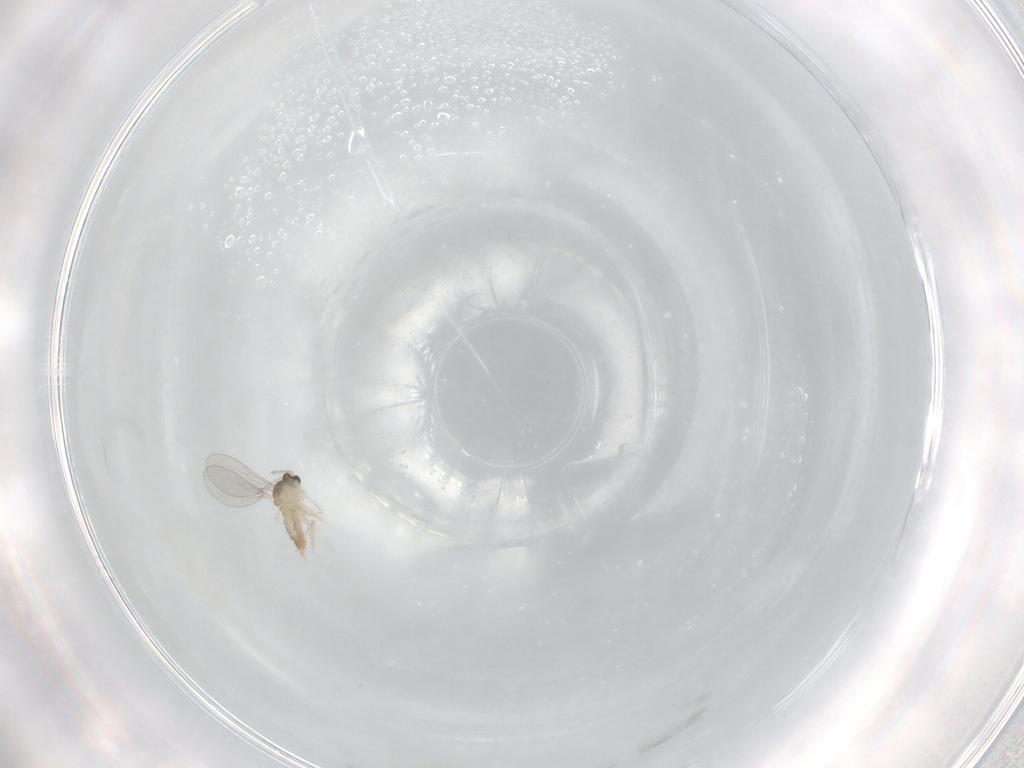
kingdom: Animalia
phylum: Arthropoda
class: Insecta
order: Diptera
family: Cecidomyiidae
